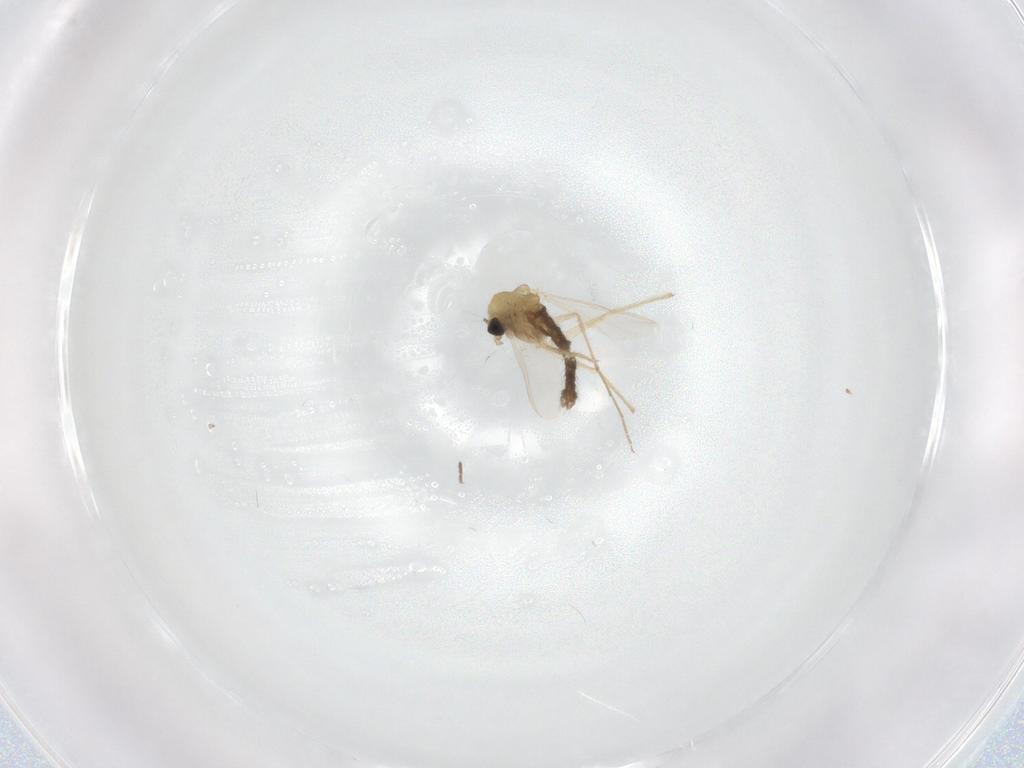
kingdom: Animalia
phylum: Arthropoda
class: Insecta
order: Diptera
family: Chironomidae
